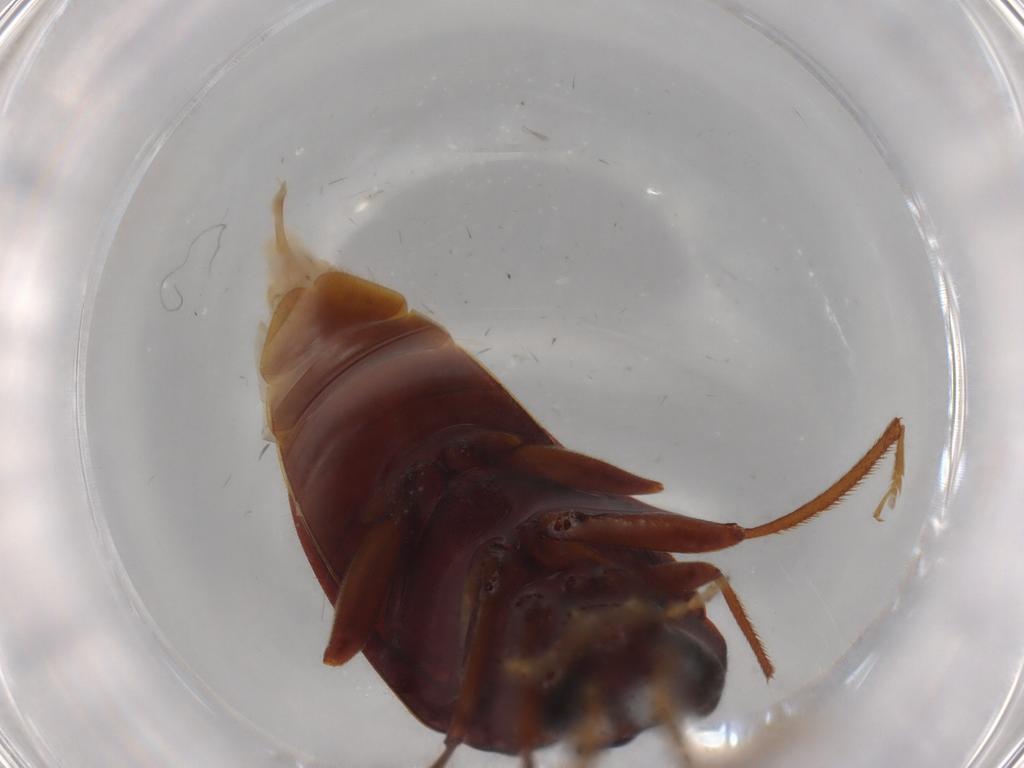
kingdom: Animalia
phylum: Arthropoda
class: Insecta
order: Coleoptera
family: Ptilodactylidae
